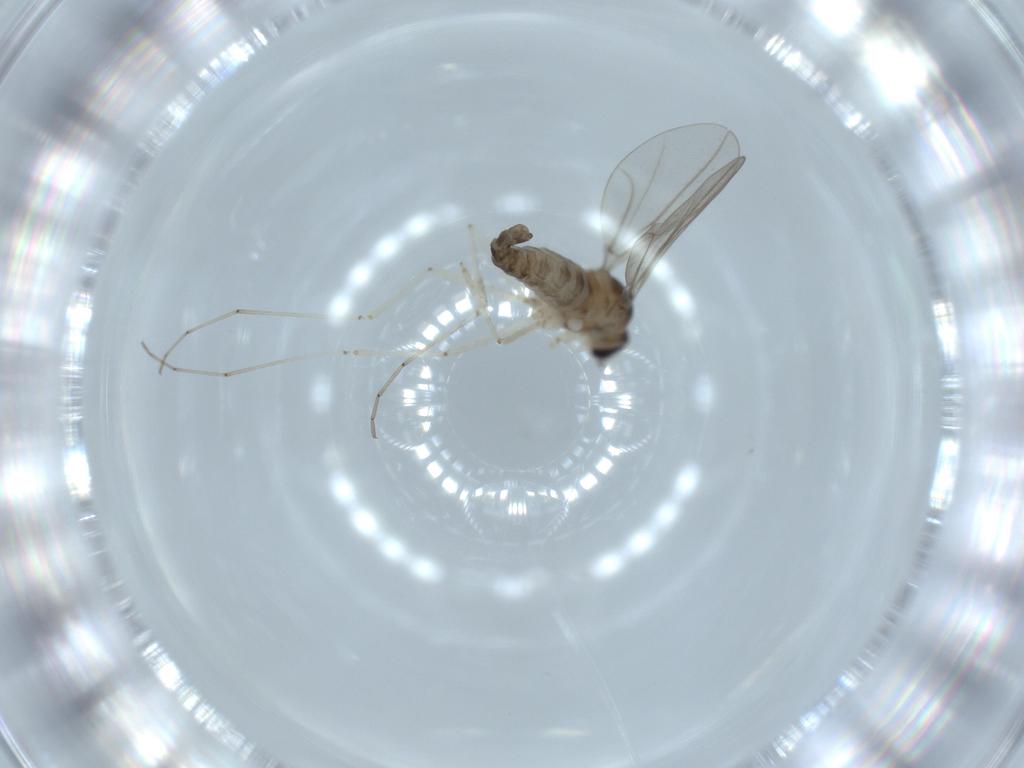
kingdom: Animalia
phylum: Arthropoda
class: Insecta
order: Diptera
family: Cecidomyiidae
